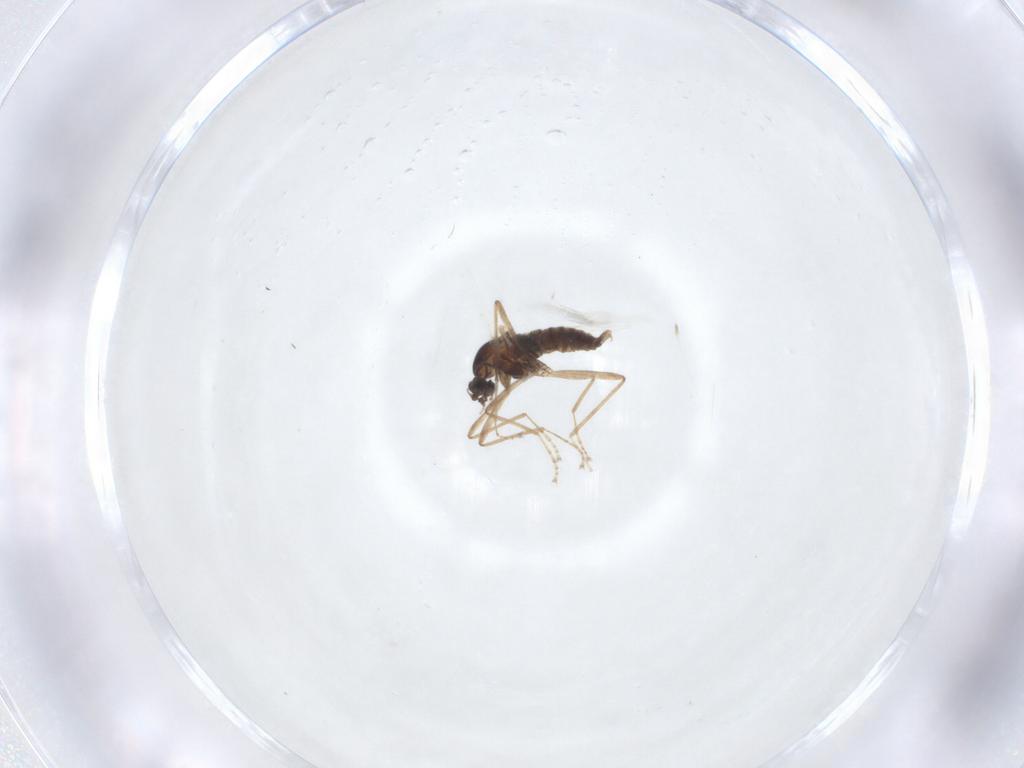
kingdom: Animalia
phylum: Arthropoda
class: Insecta
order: Diptera
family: Cecidomyiidae
